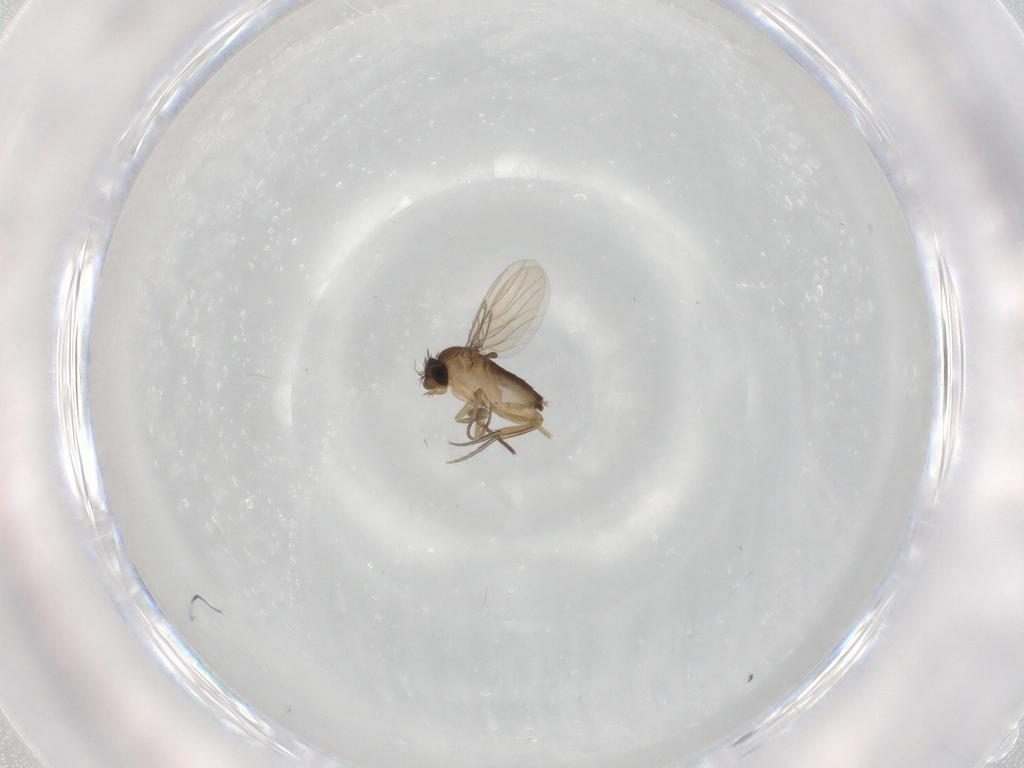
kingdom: Animalia
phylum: Arthropoda
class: Insecta
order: Diptera
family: Phoridae
